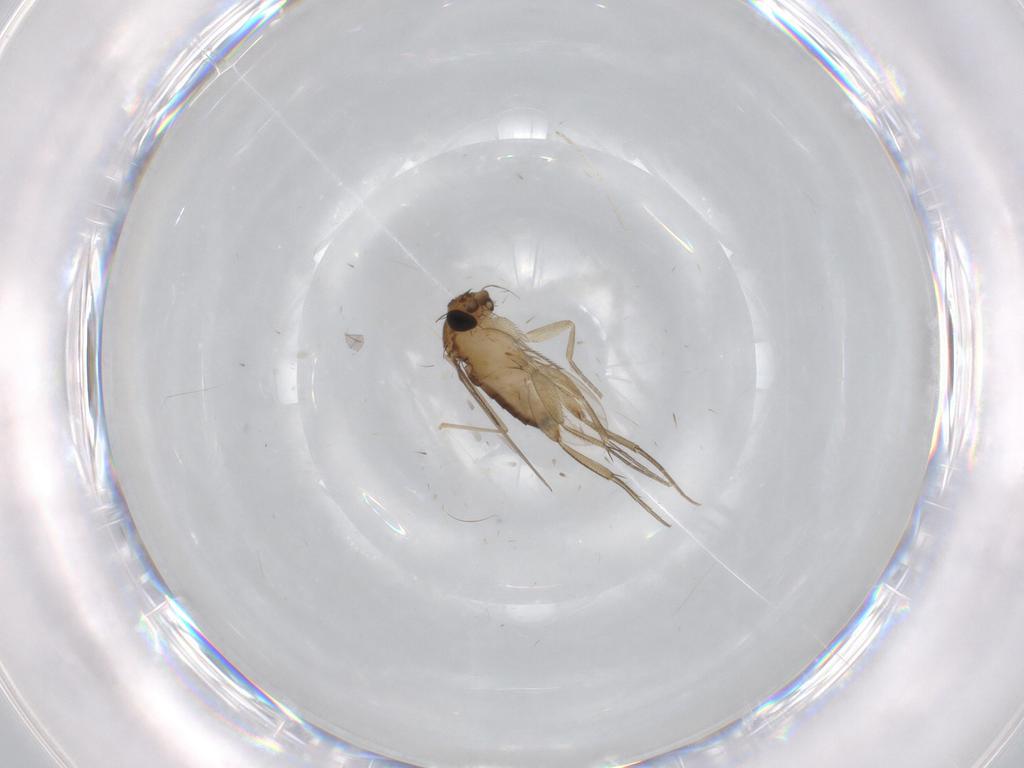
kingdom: Animalia
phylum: Arthropoda
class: Insecta
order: Diptera
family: Phoridae
